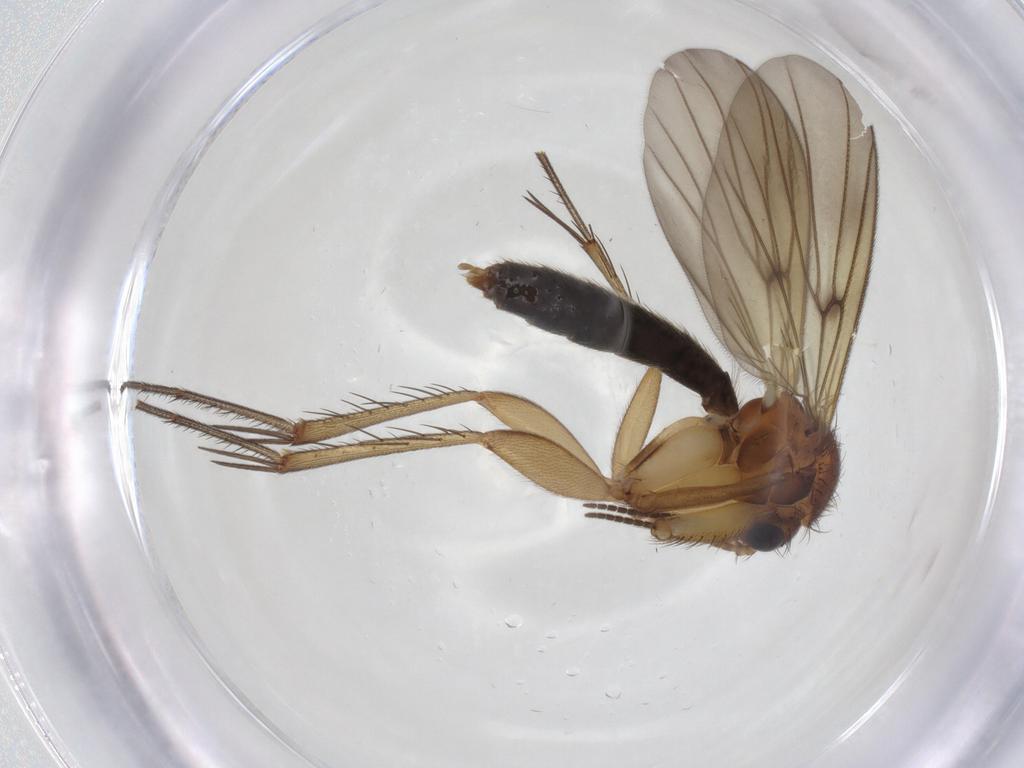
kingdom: Animalia
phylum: Arthropoda
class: Insecta
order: Diptera
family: Mycetophilidae
